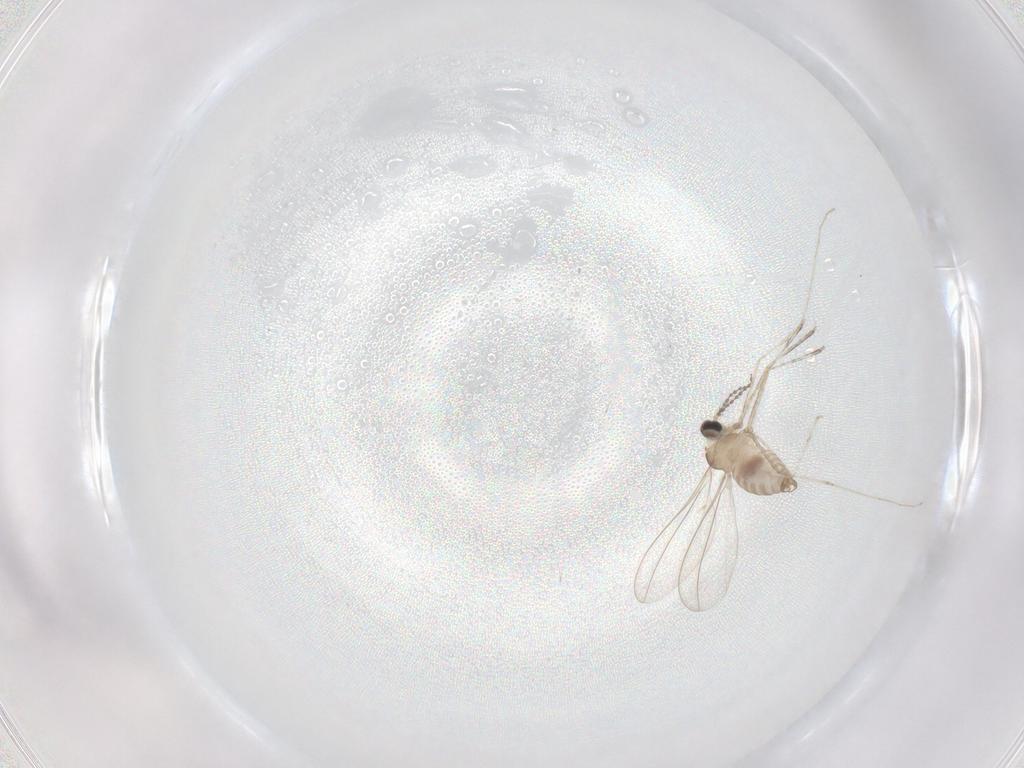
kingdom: Animalia
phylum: Arthropoda
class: Insecta
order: Diptera
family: Cecidomyiidae
